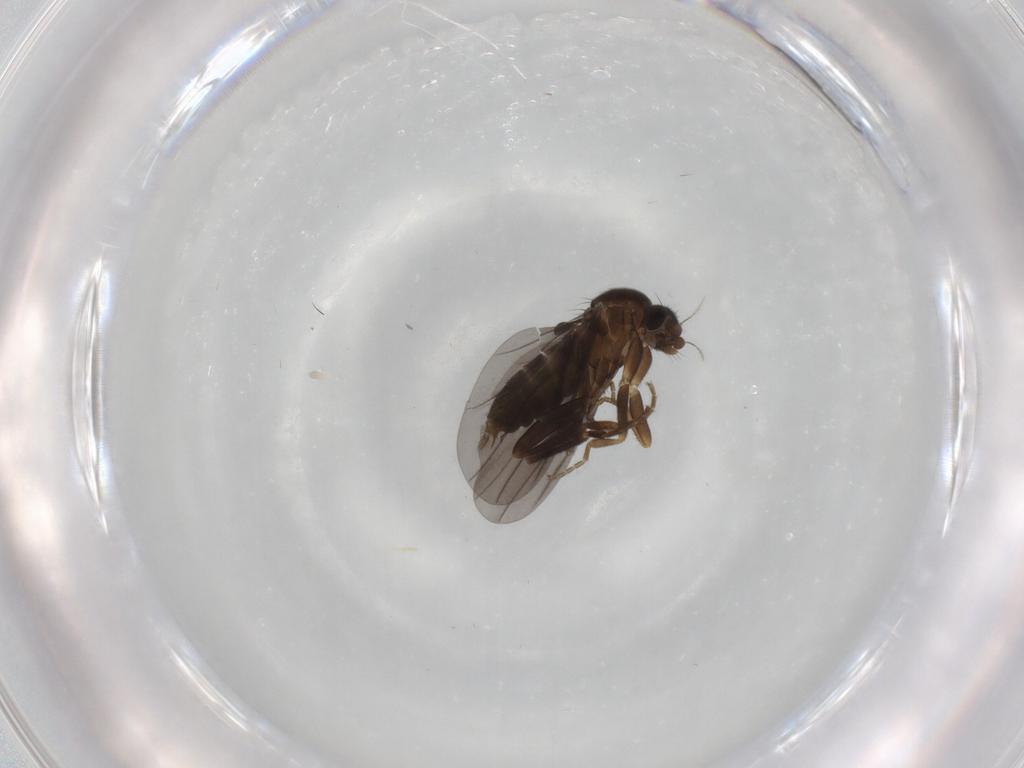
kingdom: Animalia
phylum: Arthropoda
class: Insecta
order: Diptera
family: Phoridae
